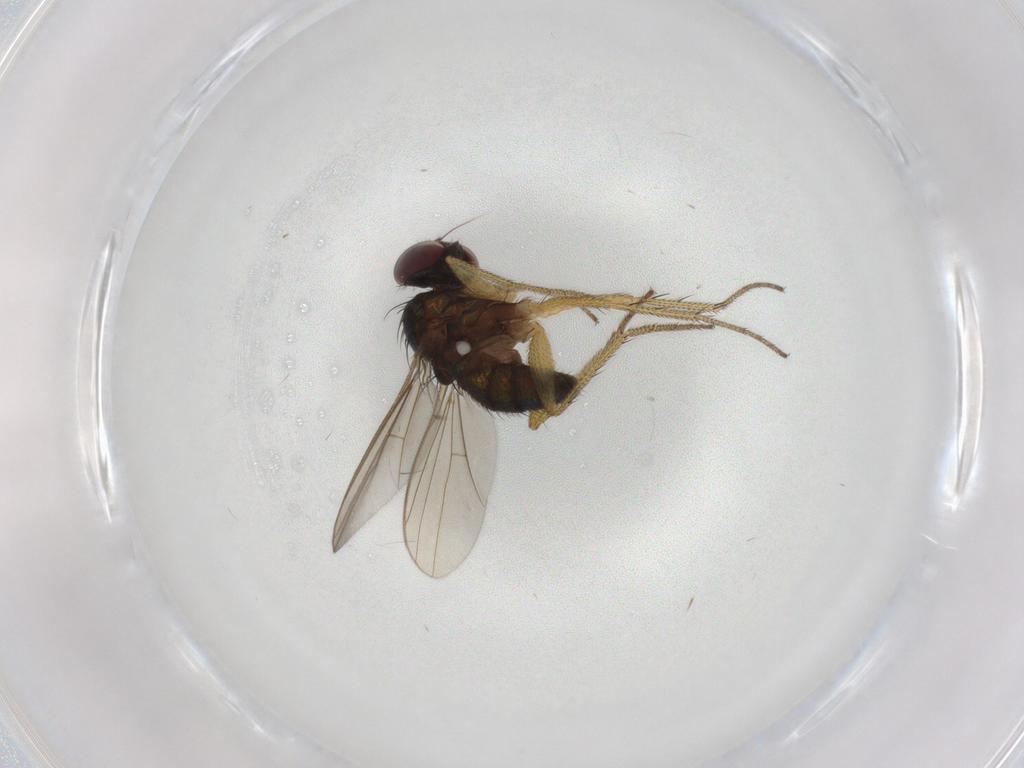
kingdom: Animalia
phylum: Arthropoda
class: Insecta
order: Diptera
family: Dolichopodidae
